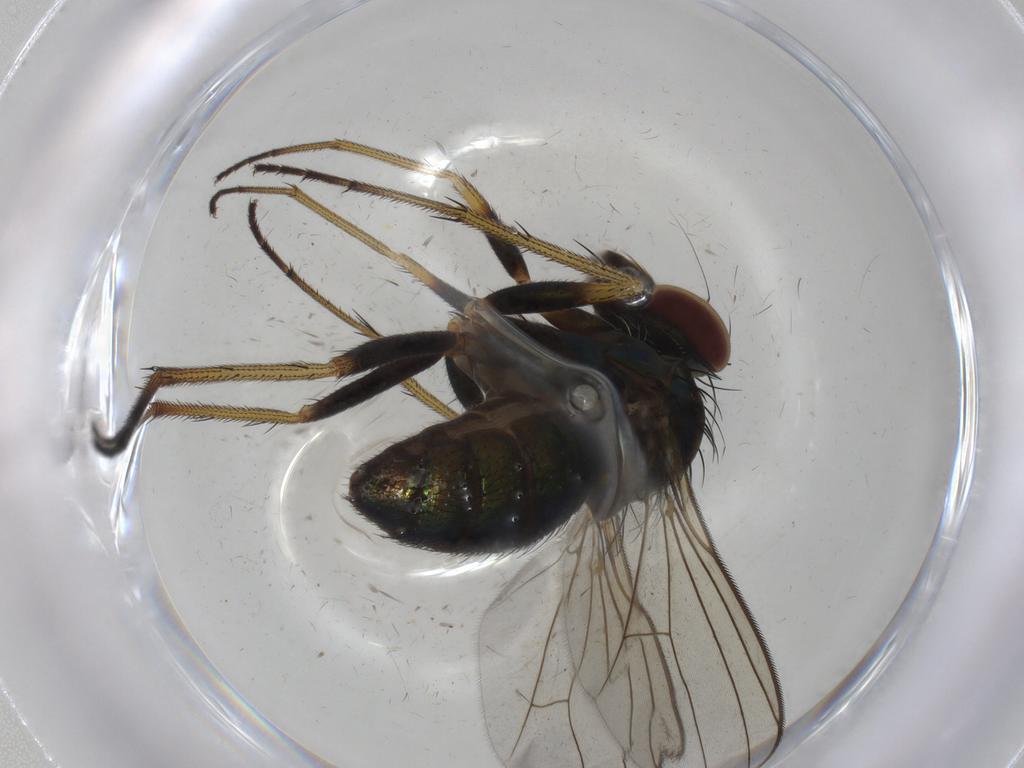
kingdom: Animalia
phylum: Arthropoda
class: Insecta
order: Diptera
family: Dolichopodidae
